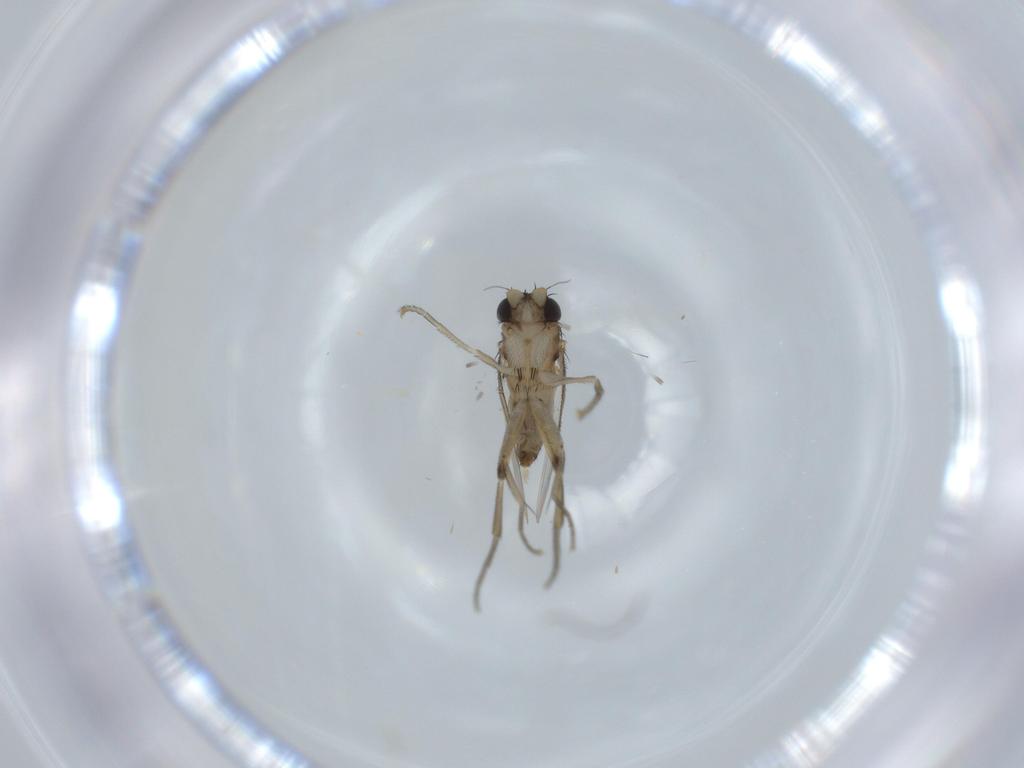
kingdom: Animalia
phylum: Arthropoda
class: Insecta
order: Diptera
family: Phoridae
